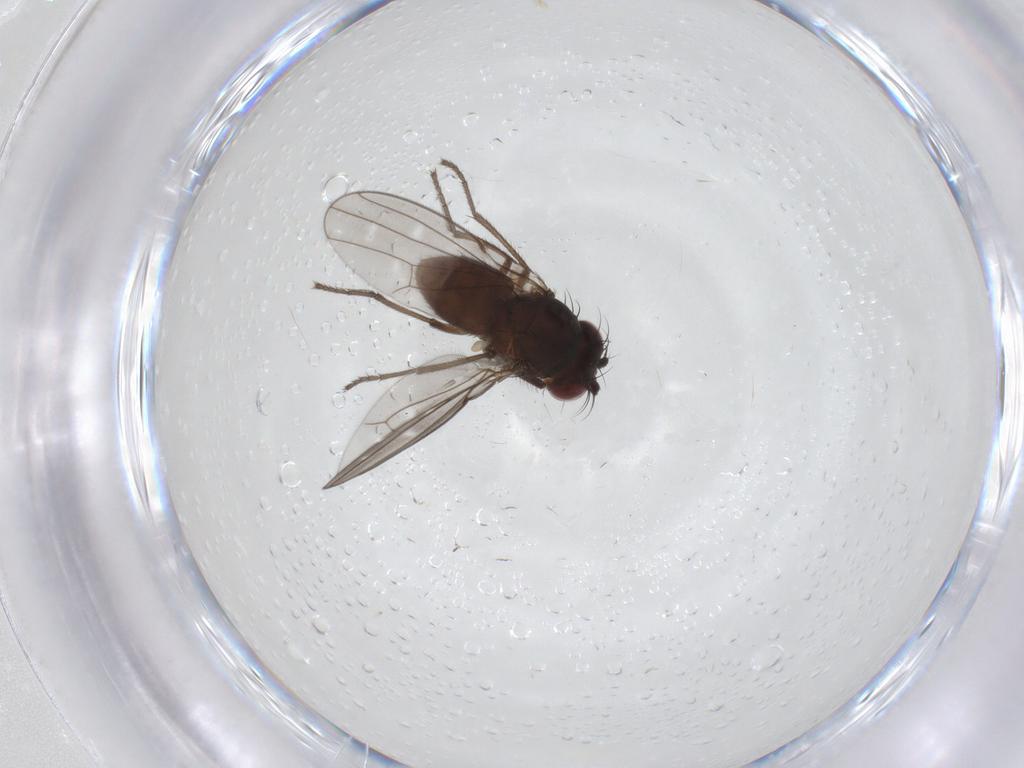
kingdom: Animalia
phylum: Arthropoda
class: Insecta
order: Diptera
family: Ephydridae
